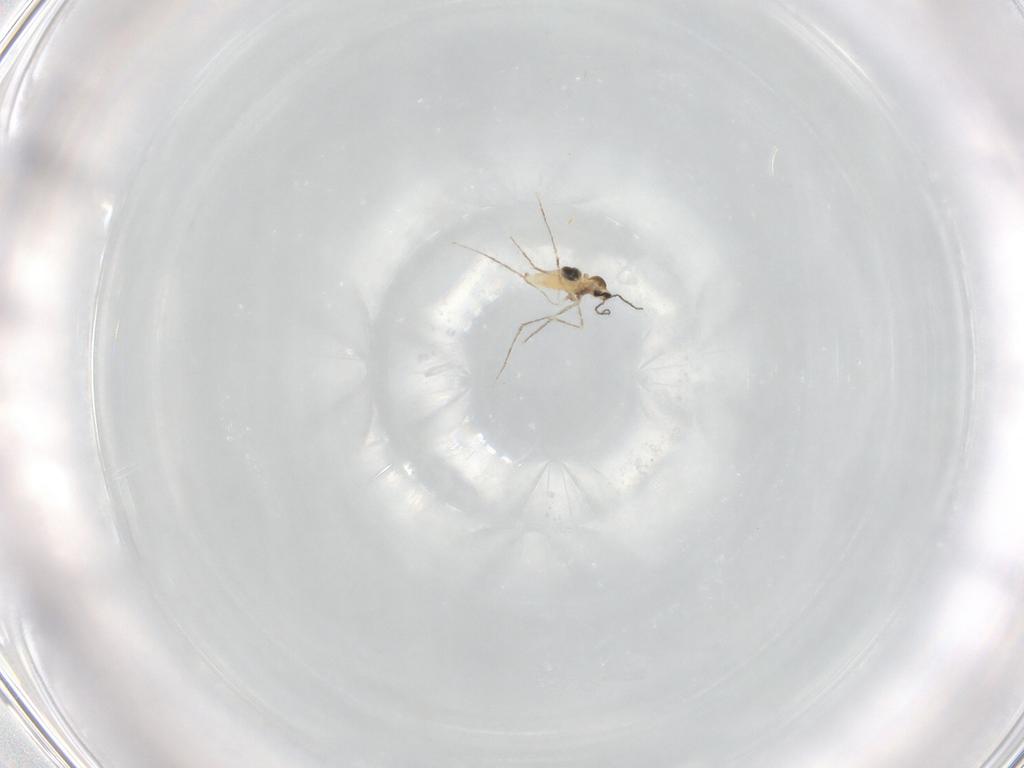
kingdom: Animalia
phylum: Arthropoda
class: Insecta
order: Diptera
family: Cecidomyiidae
